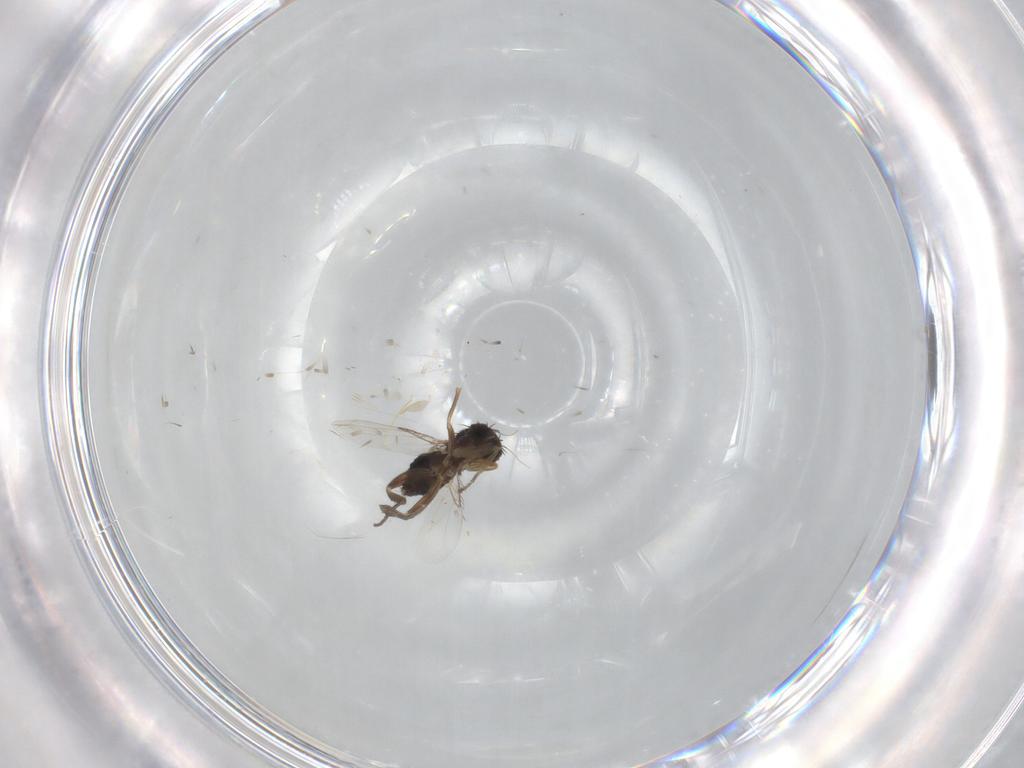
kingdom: Animalia
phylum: Arthropoda
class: Insecta
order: Diptera
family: Phoridae
